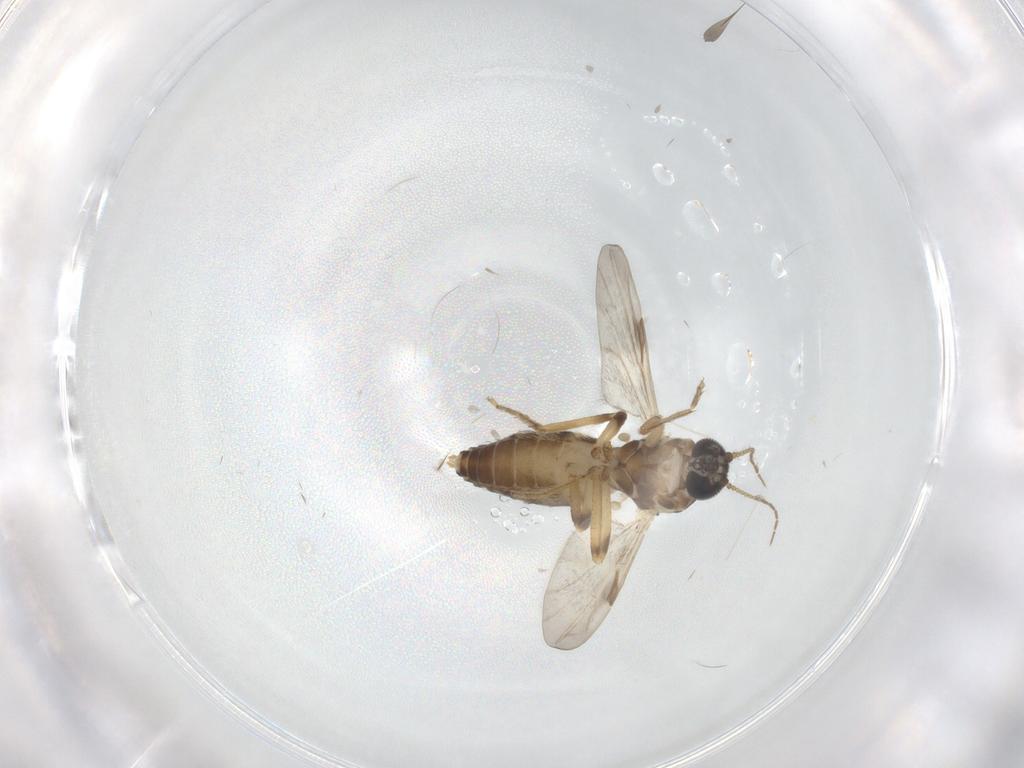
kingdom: Animalia
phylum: Arthropoda
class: Insecta
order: Diptera
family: Ceratopogonidae
